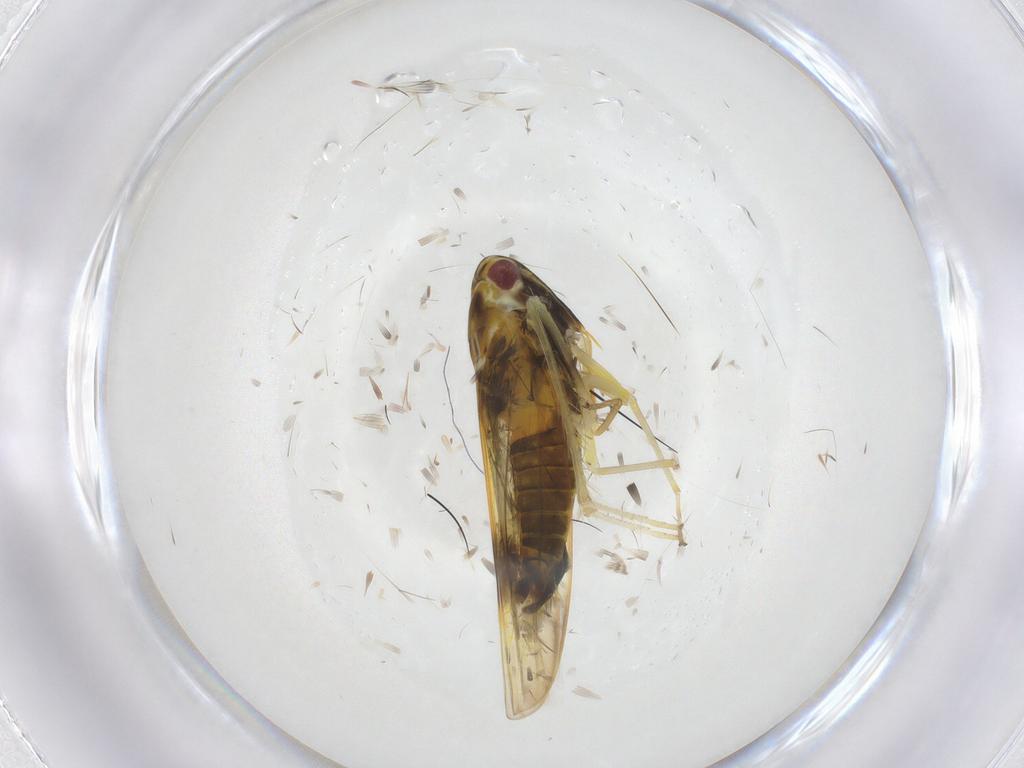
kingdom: Animalia
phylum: Arthropoda
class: Insecta
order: Hemiptera
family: Cicadellidae
